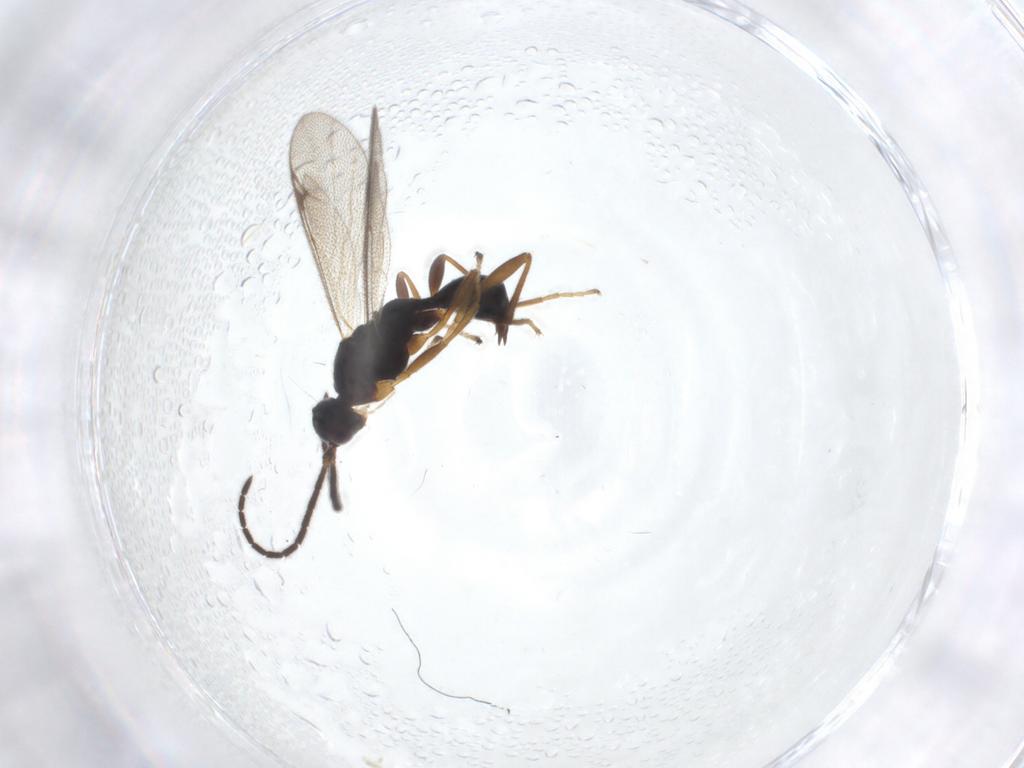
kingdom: Animalia
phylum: Arthropoda
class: Insecta
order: Hymenoptera
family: Proctotrupidae
